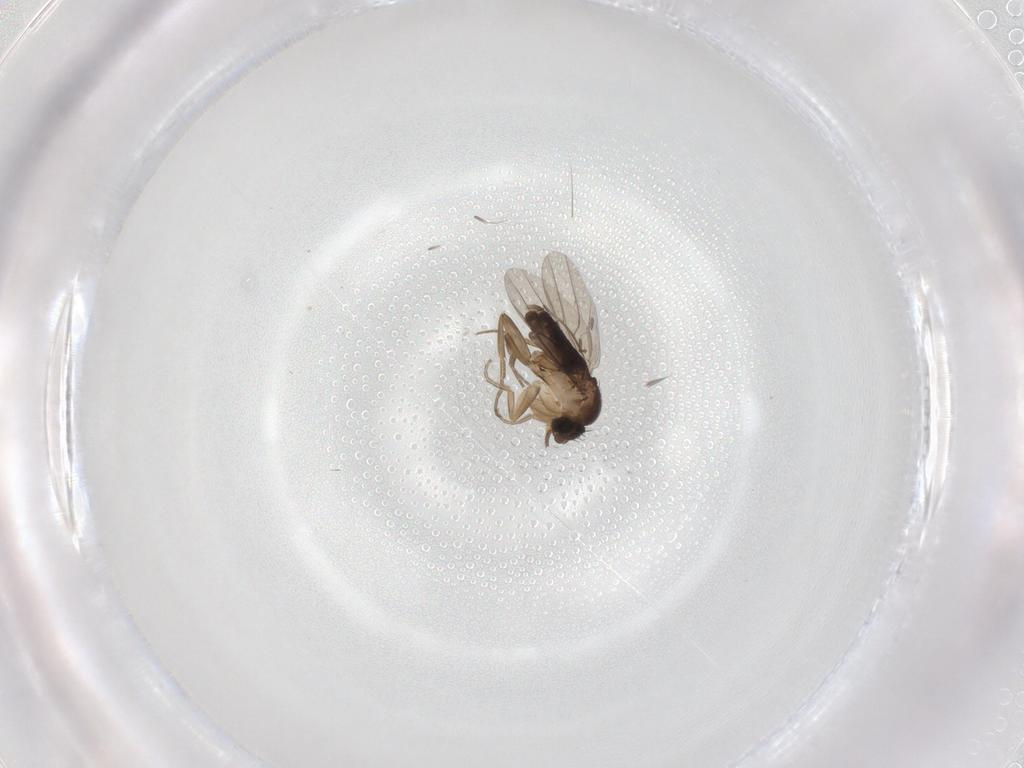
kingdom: Animalia
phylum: Arthropoda
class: Insecta
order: Diptera
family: Phoridae
